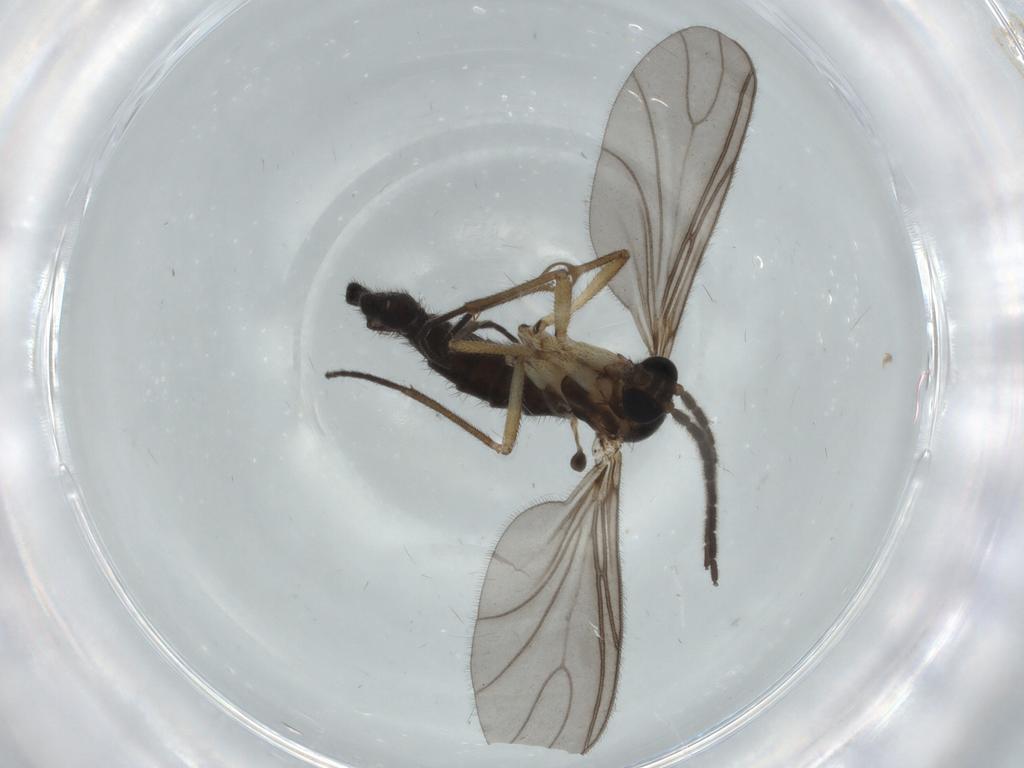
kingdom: Animalia
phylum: Arthropoda
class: Insecta
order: Diptera
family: Sciaridae
